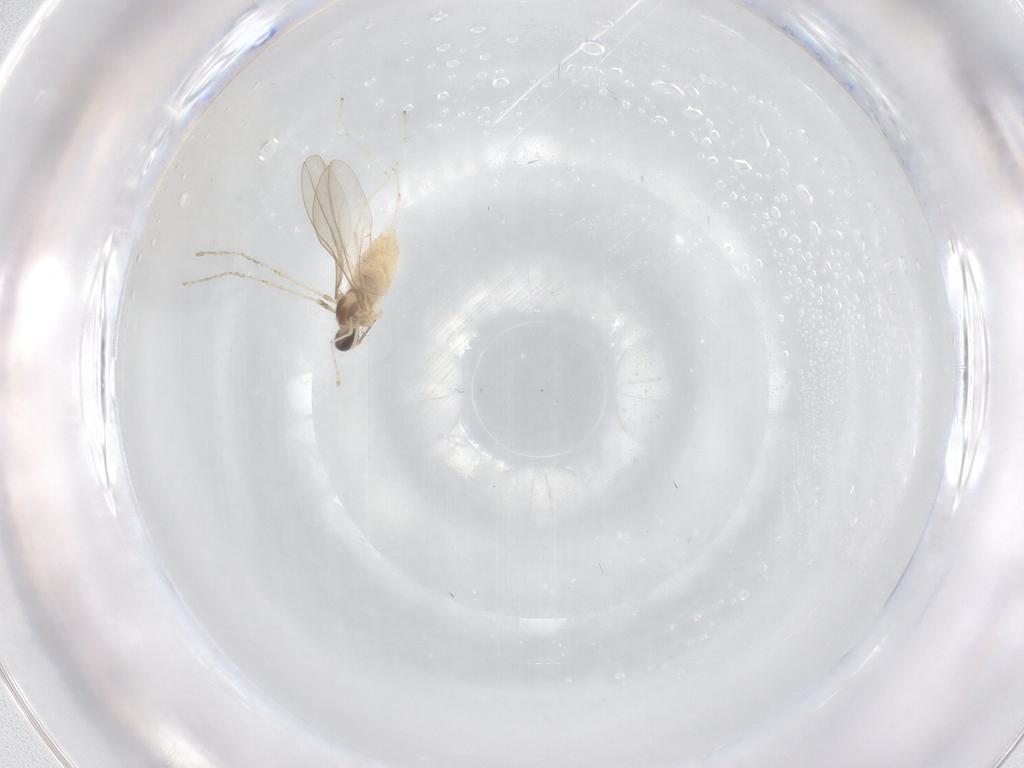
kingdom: Animalia
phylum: Arthropoda
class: Insecta
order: Diptera
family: Cecidomyiidae
